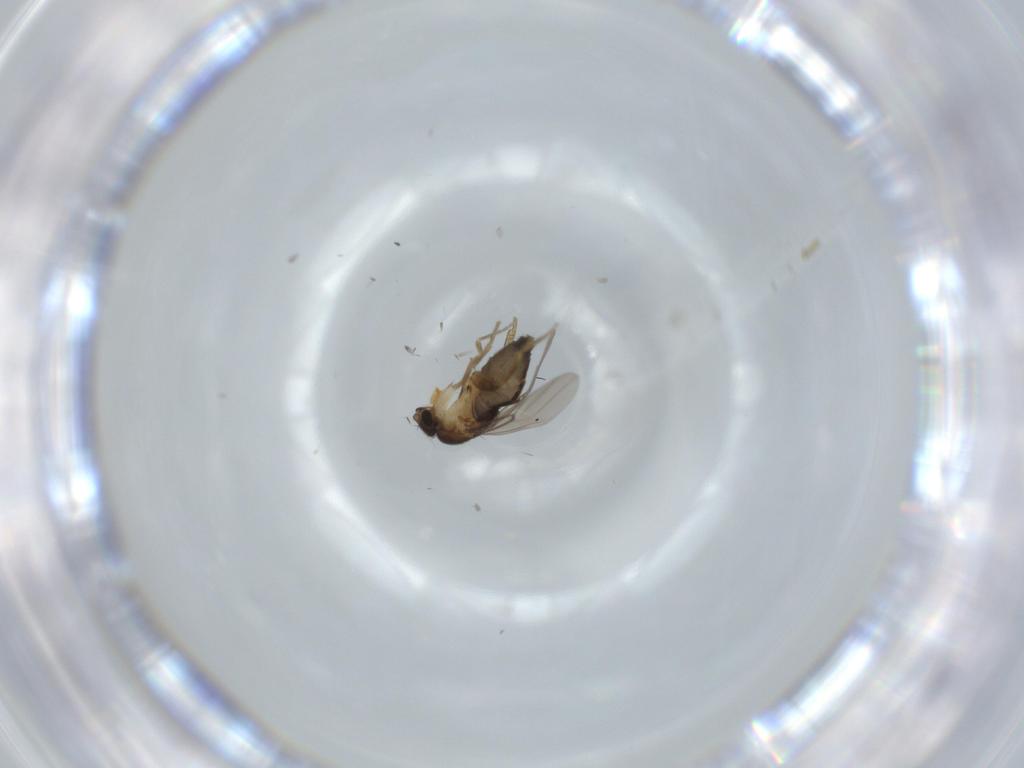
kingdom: Animalia
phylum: Arthropoda
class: Insecta
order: Diptera
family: Phoridae
